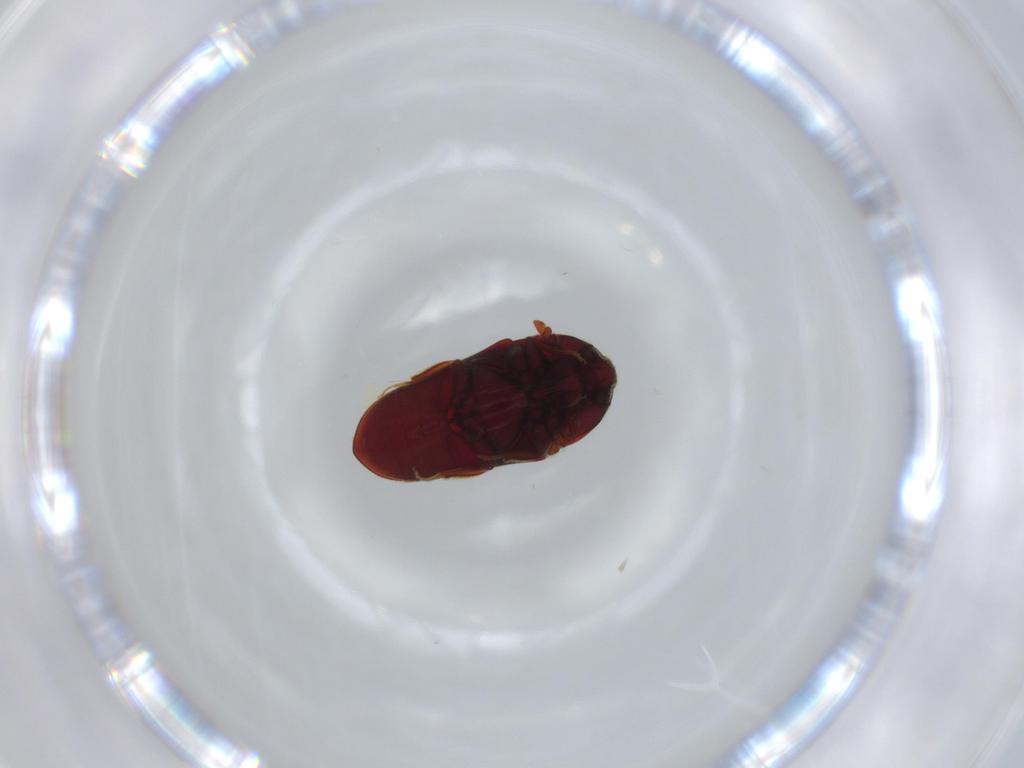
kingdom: Animalia
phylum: Arthropoda
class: Insecta
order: Coleoptera
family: Throscidae
